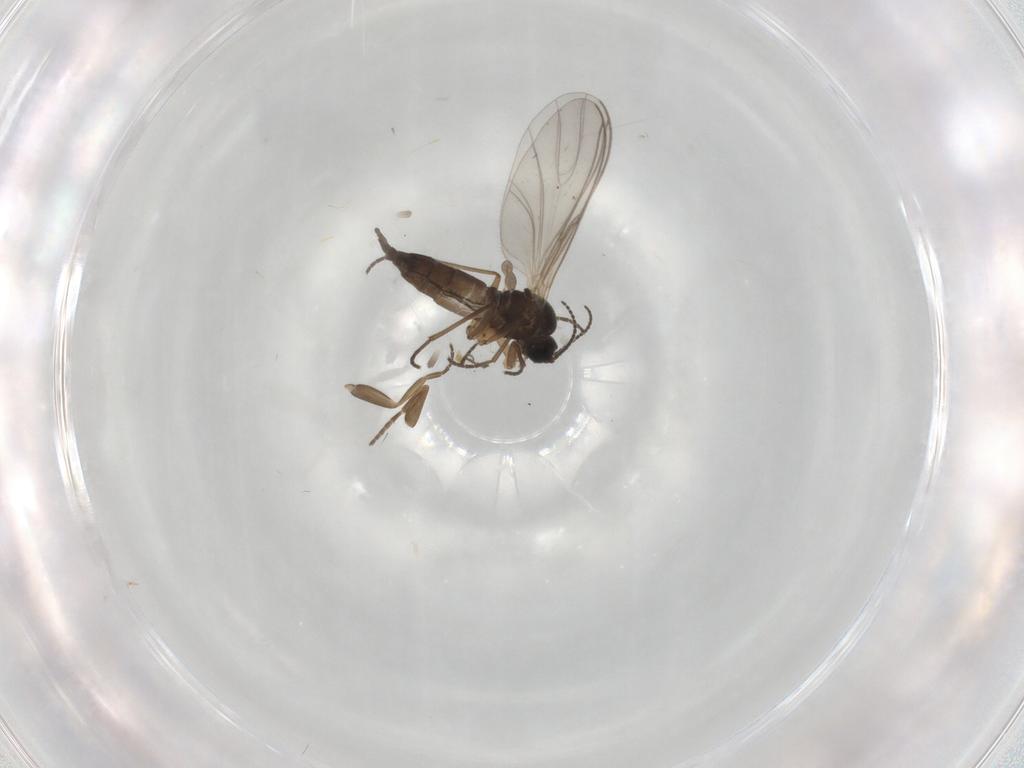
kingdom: Animalia
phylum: Arthropoda
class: Insecta
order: Diptera
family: Sciaridae
